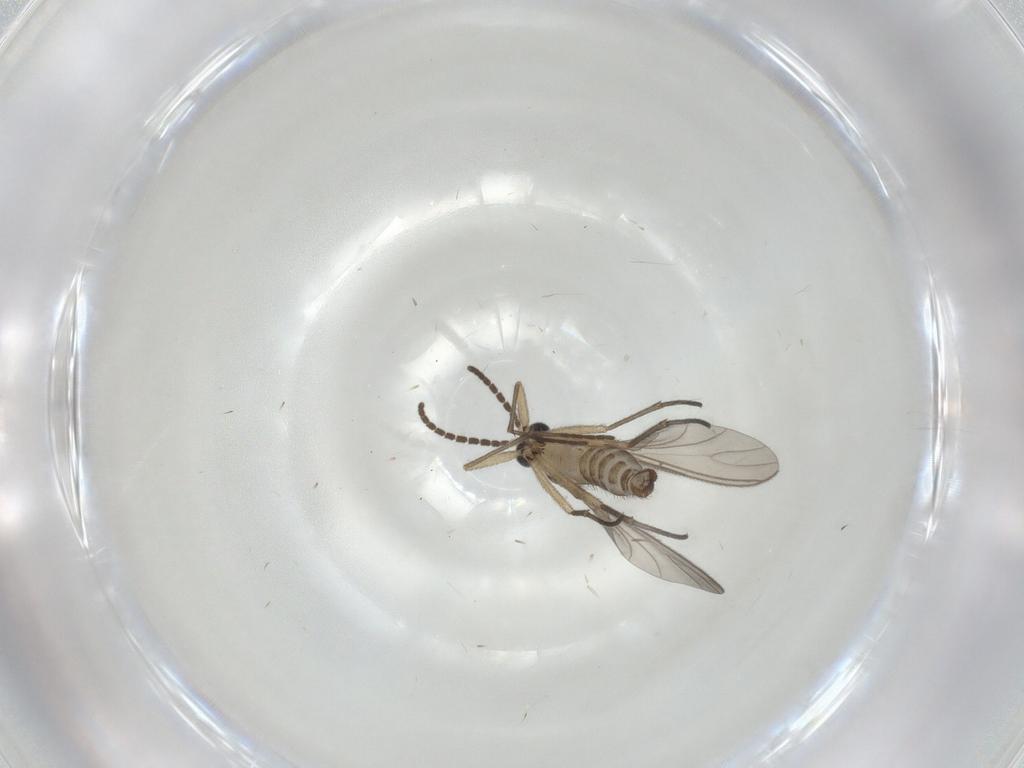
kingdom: Animalia
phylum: Arthropoda
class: Insecta
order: Diptera
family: Sciaridae
